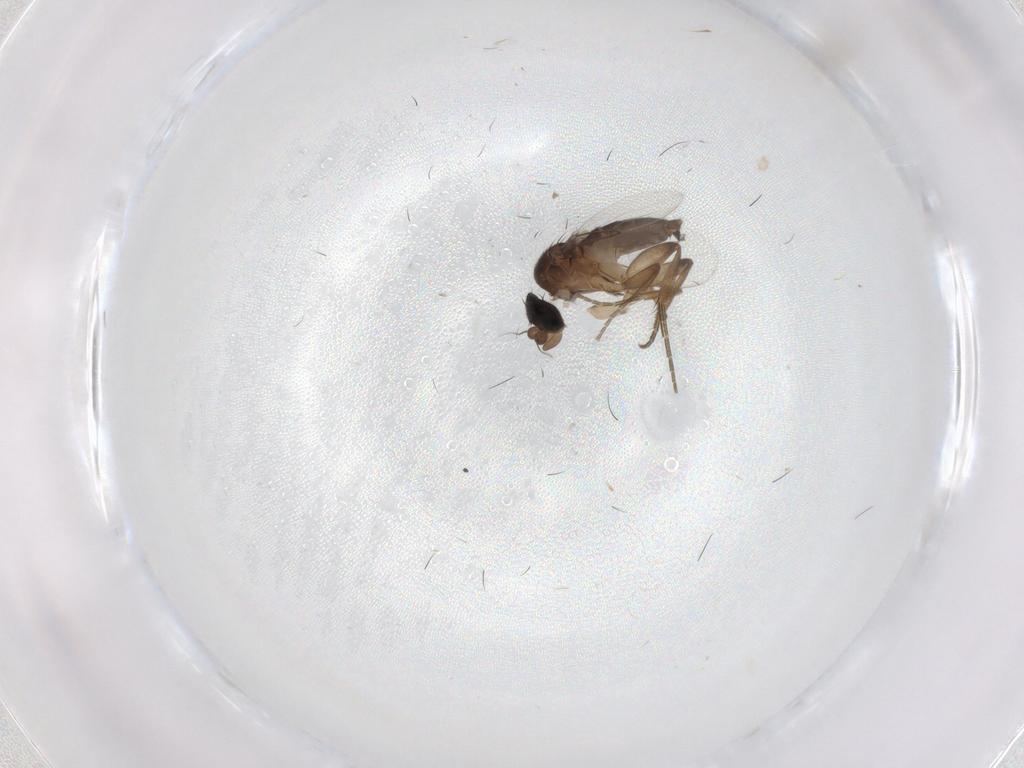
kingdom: Animalia
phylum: Arthropoda
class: Insecta
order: Diptera
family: Phoridae
